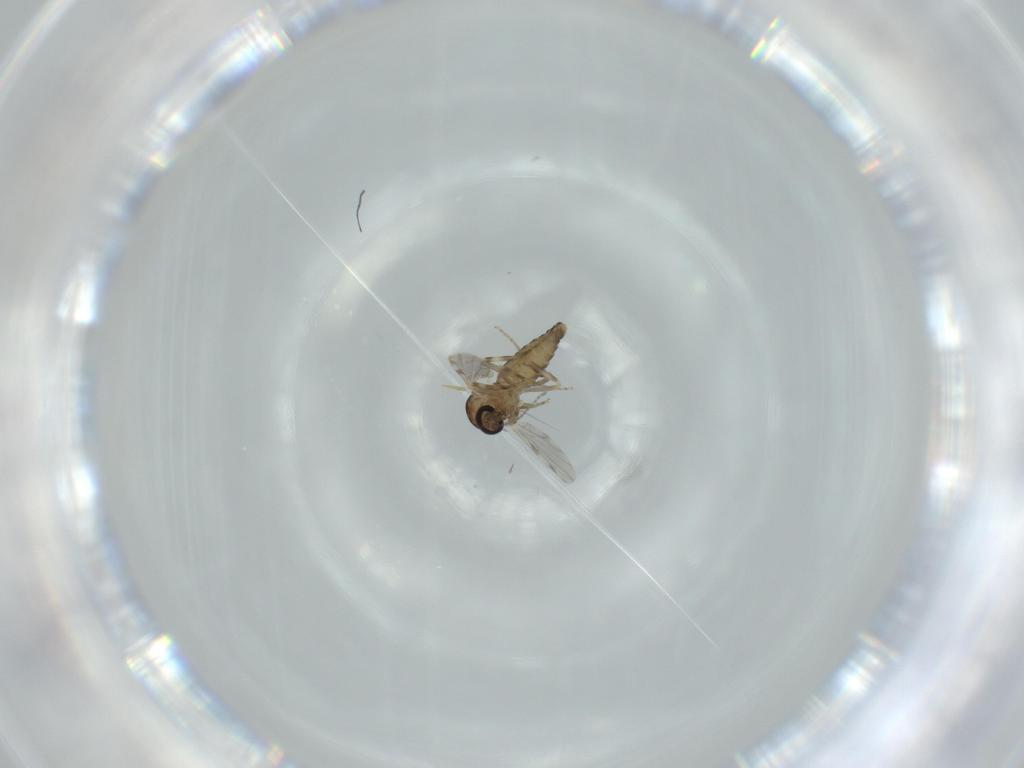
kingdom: Animalia
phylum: Arthropoda
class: Insecta
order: Diptera
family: Ceratopogonidae
